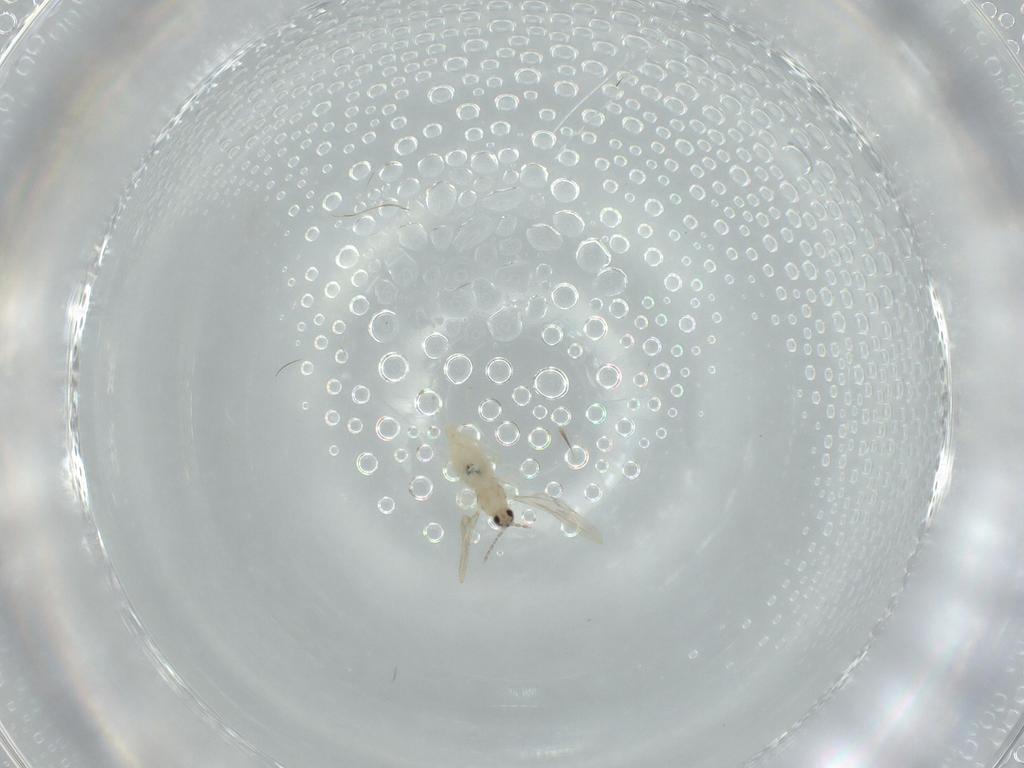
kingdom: Animalia
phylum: Arthropoda
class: Insecta
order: Diptera
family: Cecidomyiidae
